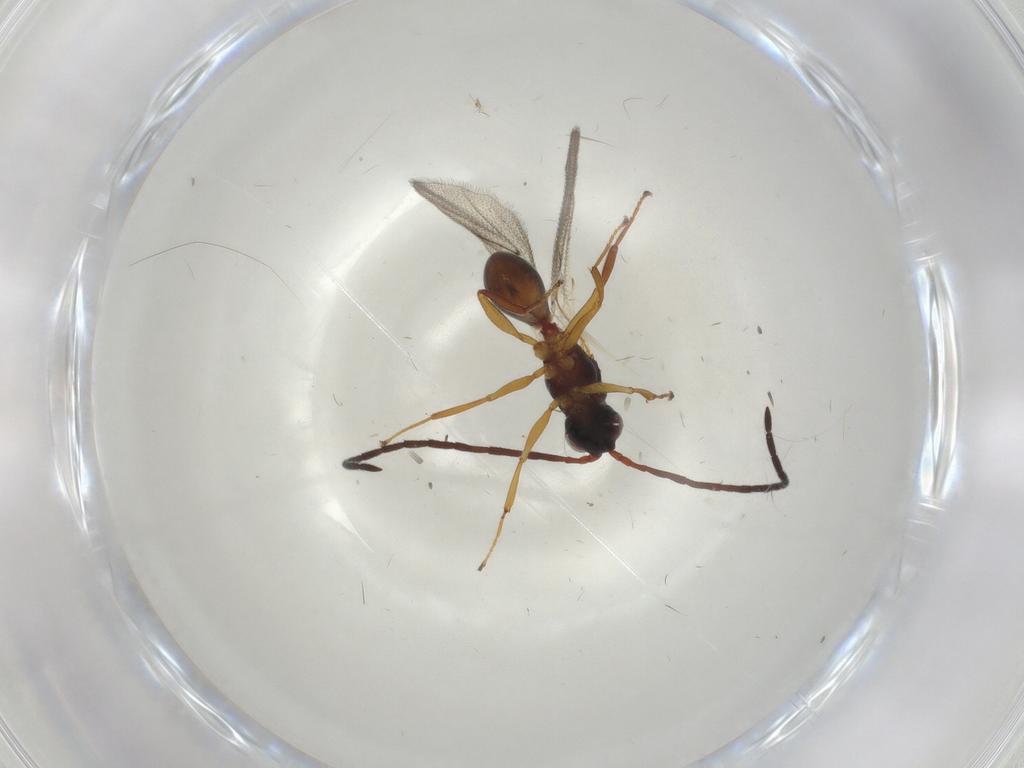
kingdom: Animalia
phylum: Arthropoda
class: Insecta
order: Hymenoptera
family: Figitidae
